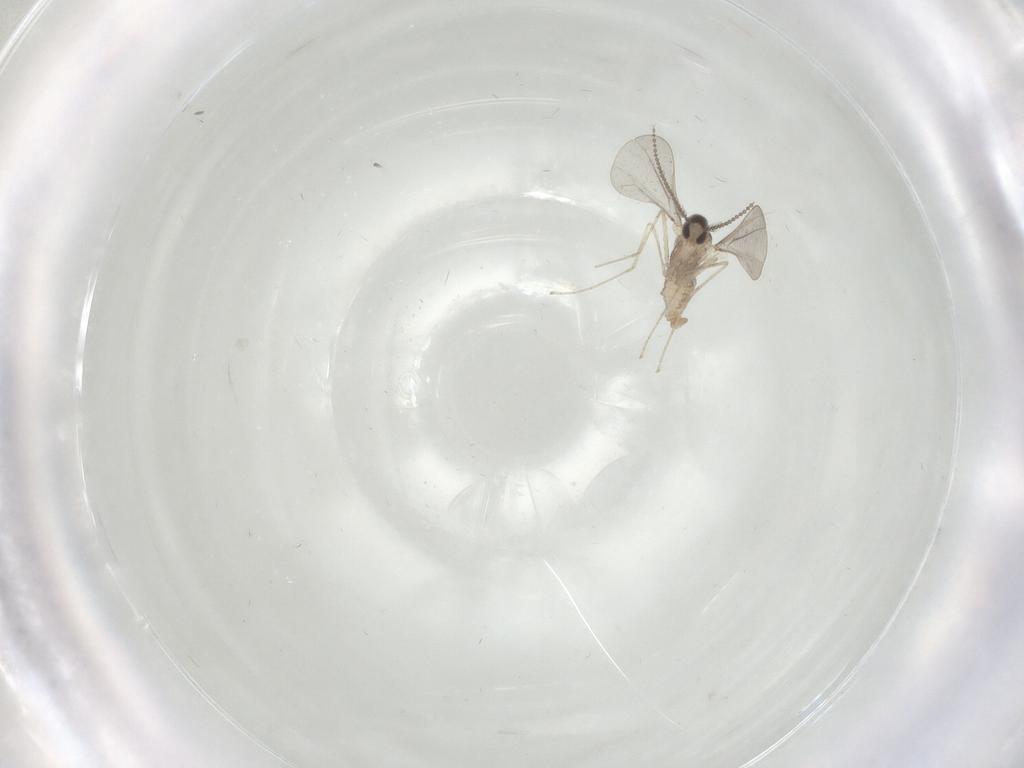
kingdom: Animalia
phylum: Arthropoda
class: Insecta
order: Diptera
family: Cecidomyiidae
